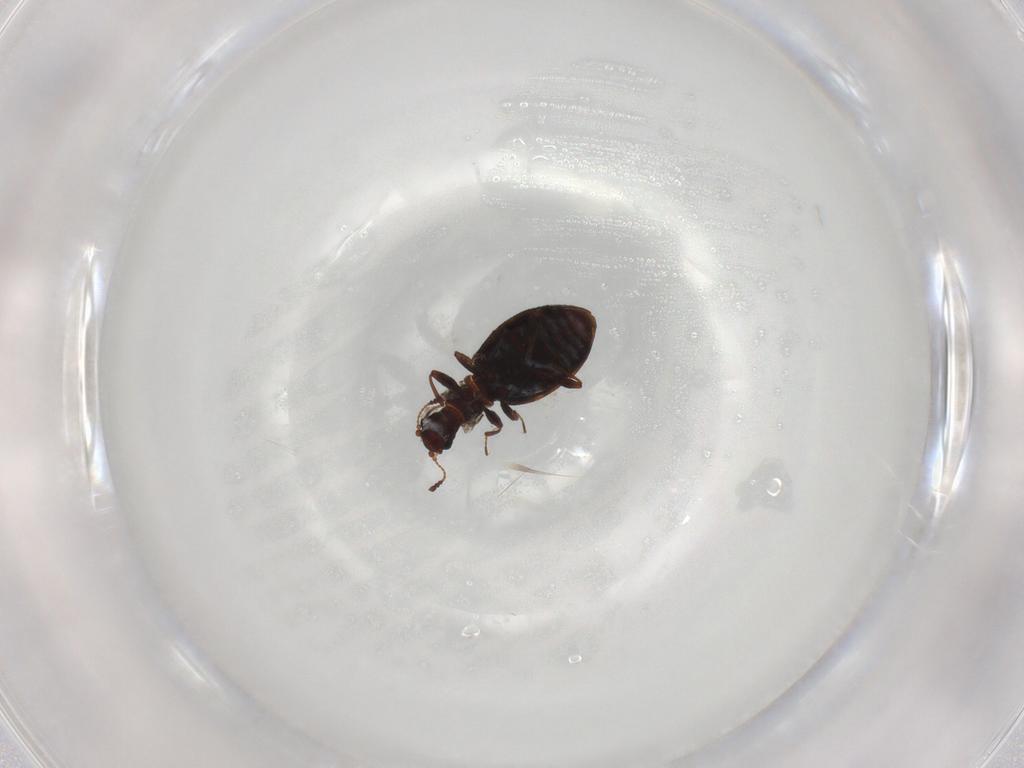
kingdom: Animalia
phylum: Arthropoda
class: Insecta
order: Coleoptera
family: Latridiidae
